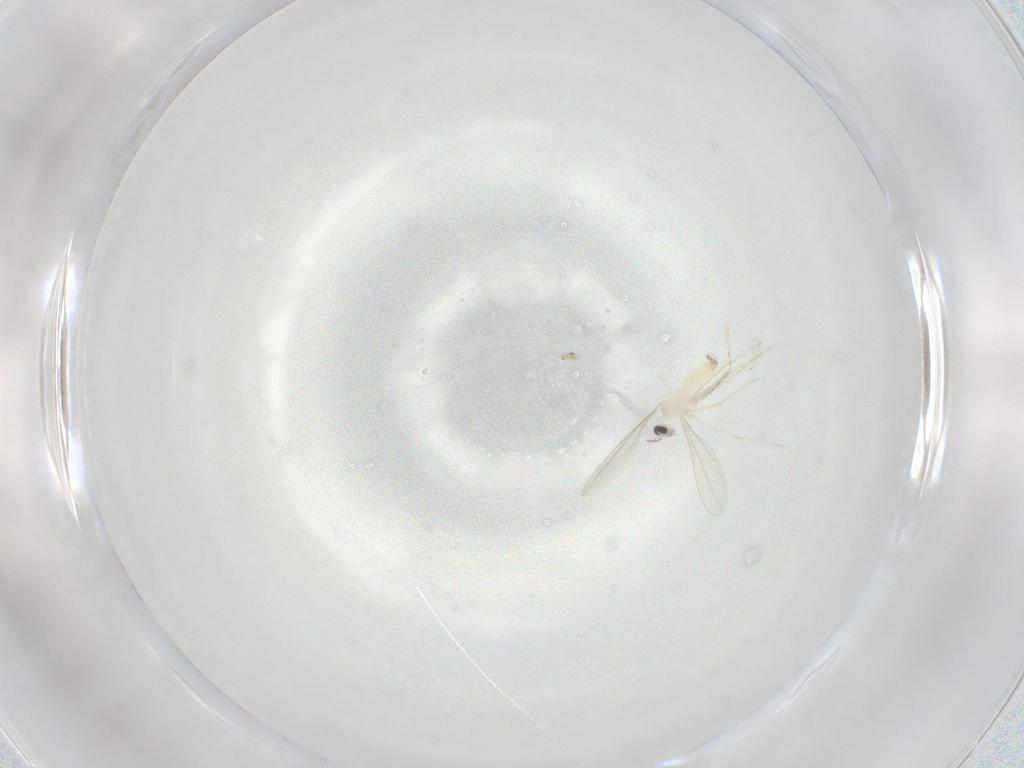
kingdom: Animalia
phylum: Arthropoda
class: Insecta
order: Diptera
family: Cecidomyiidae
